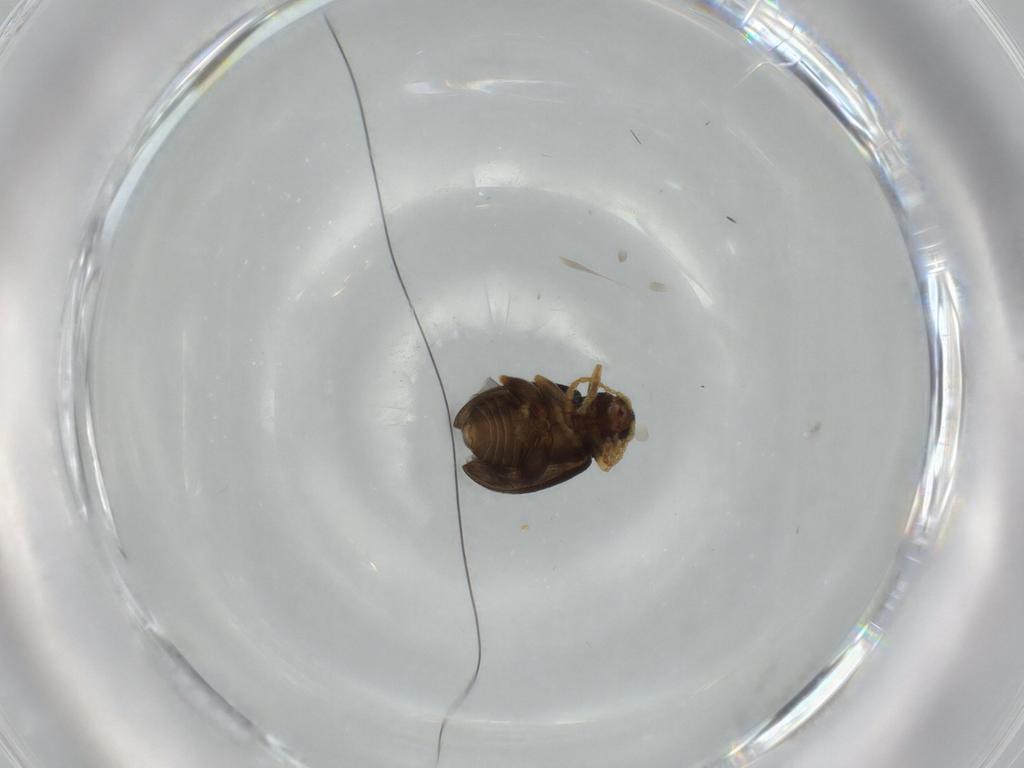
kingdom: Animalia
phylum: Arthropoda
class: Insecta
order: Coleoptera
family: Chrysomelidae
